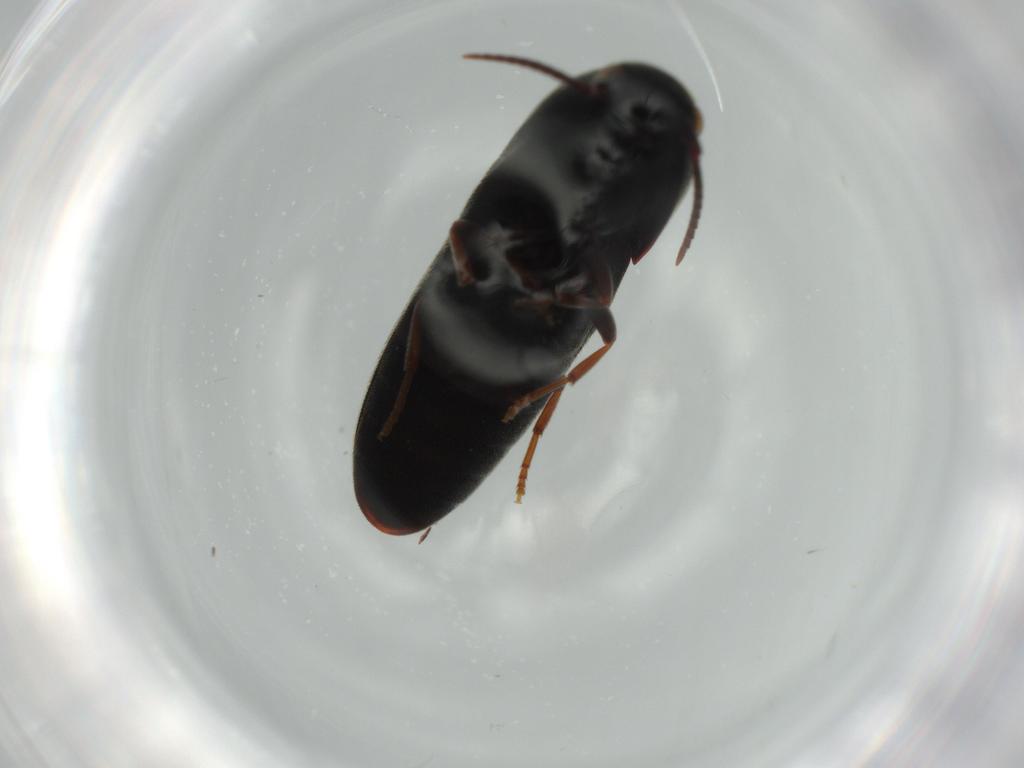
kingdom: Animalia
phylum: Arthropoda
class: Insecta
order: Coleoptera
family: Eucnemidae
